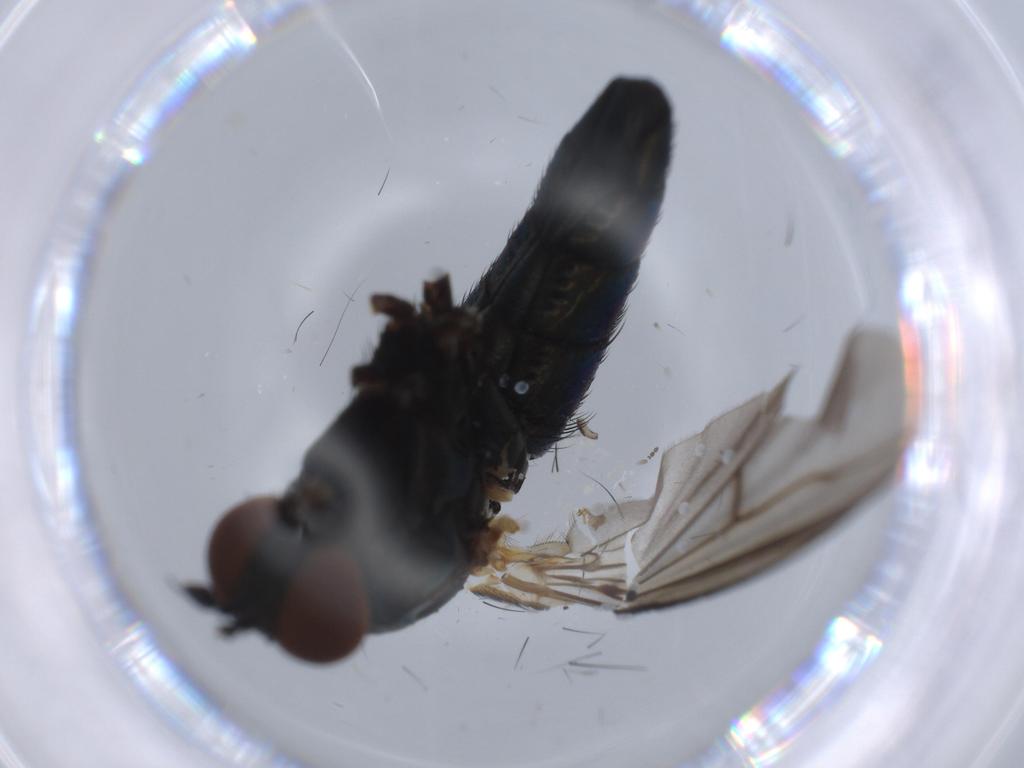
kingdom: Animalia
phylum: Arthropoda
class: Insecta
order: Diptera
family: Dolichopodidae
